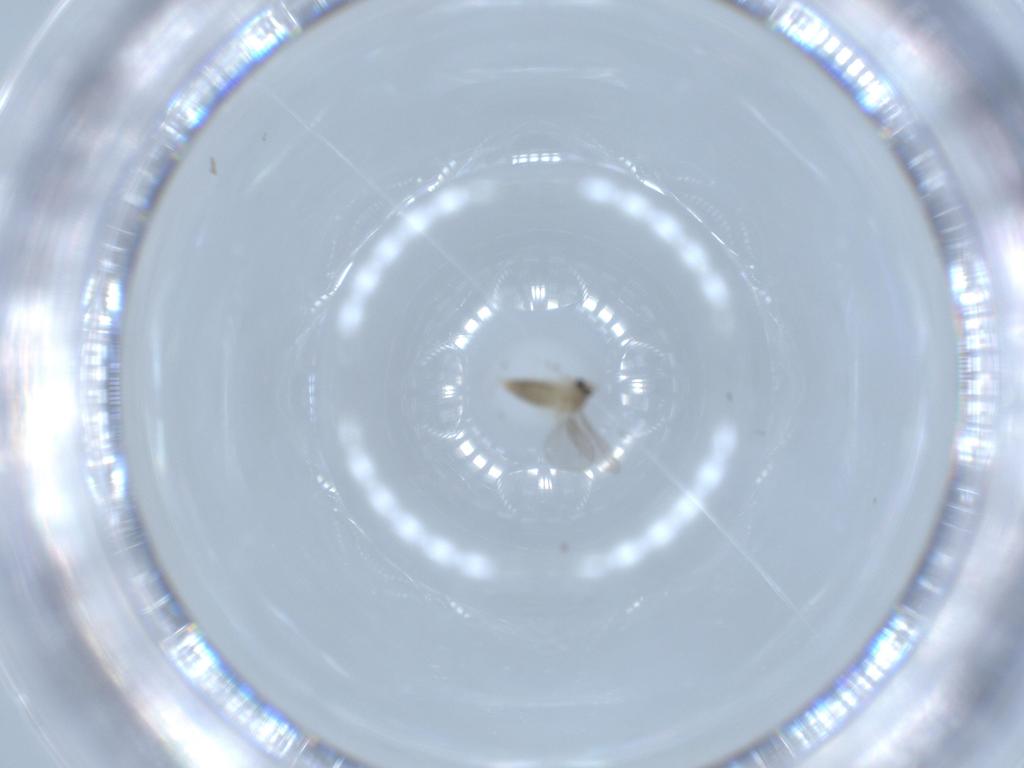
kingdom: Animalia
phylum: Arthropoda
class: Insecta
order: Diptera
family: Cecidomyiidae
